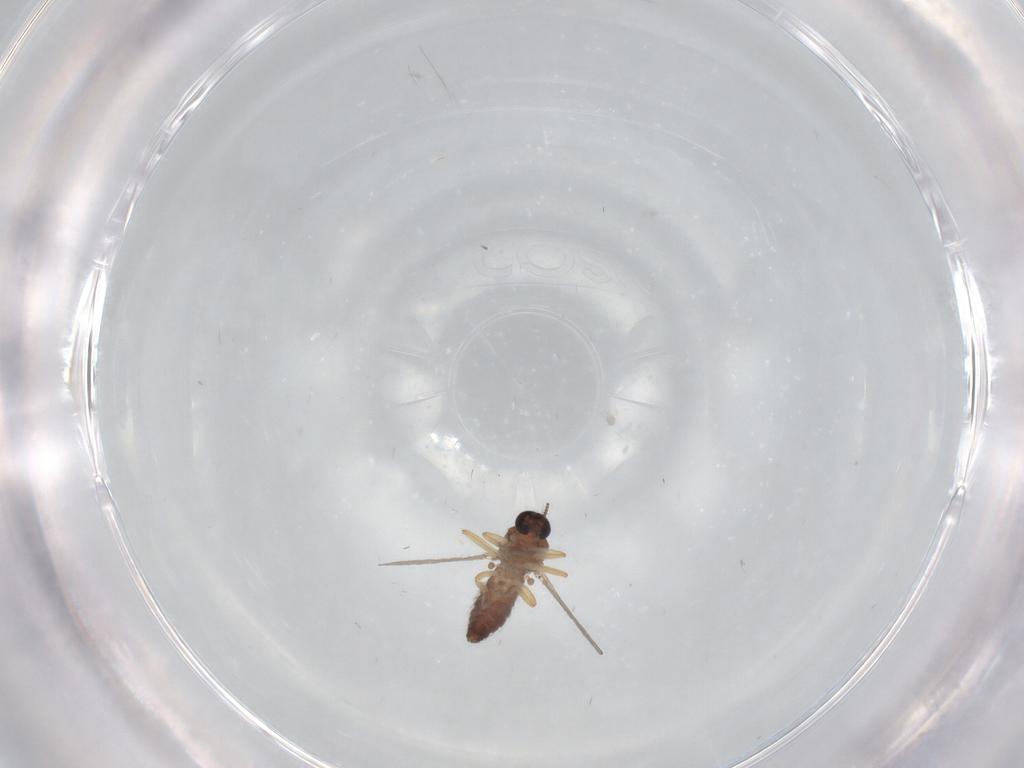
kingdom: Animalia
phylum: Arthropoda
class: Insecta
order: Diptera
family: Ceratopogonidae
